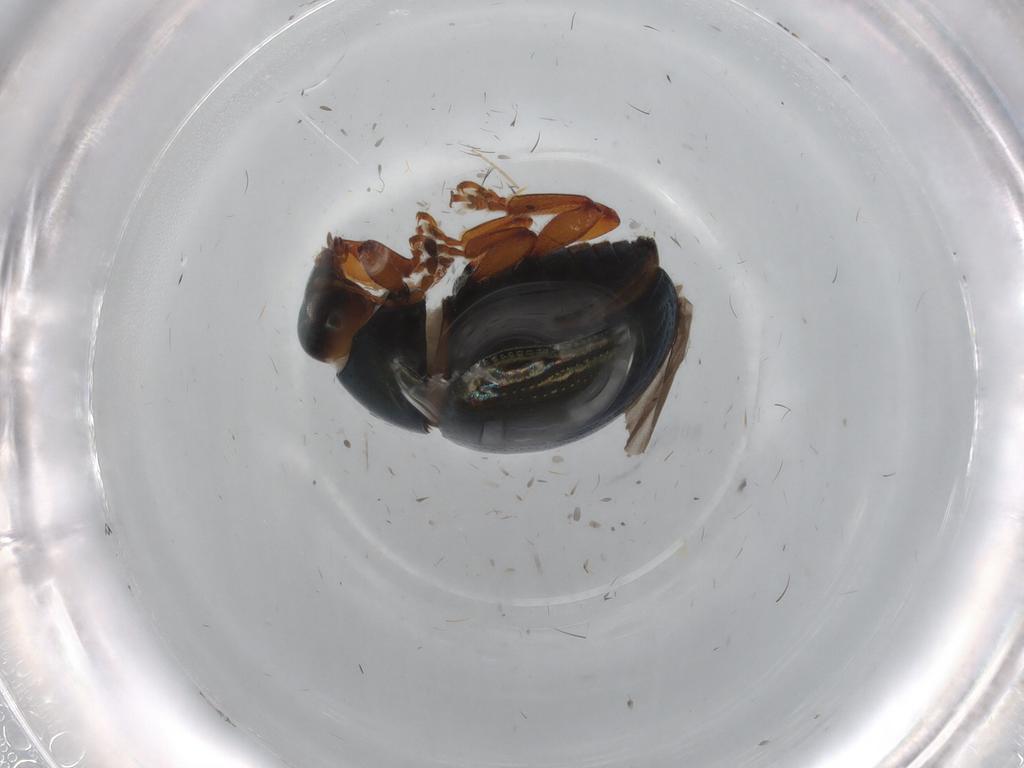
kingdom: Animalia
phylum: Arthropoda
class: Insecta
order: Coleoptera
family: Chrysomelidae
